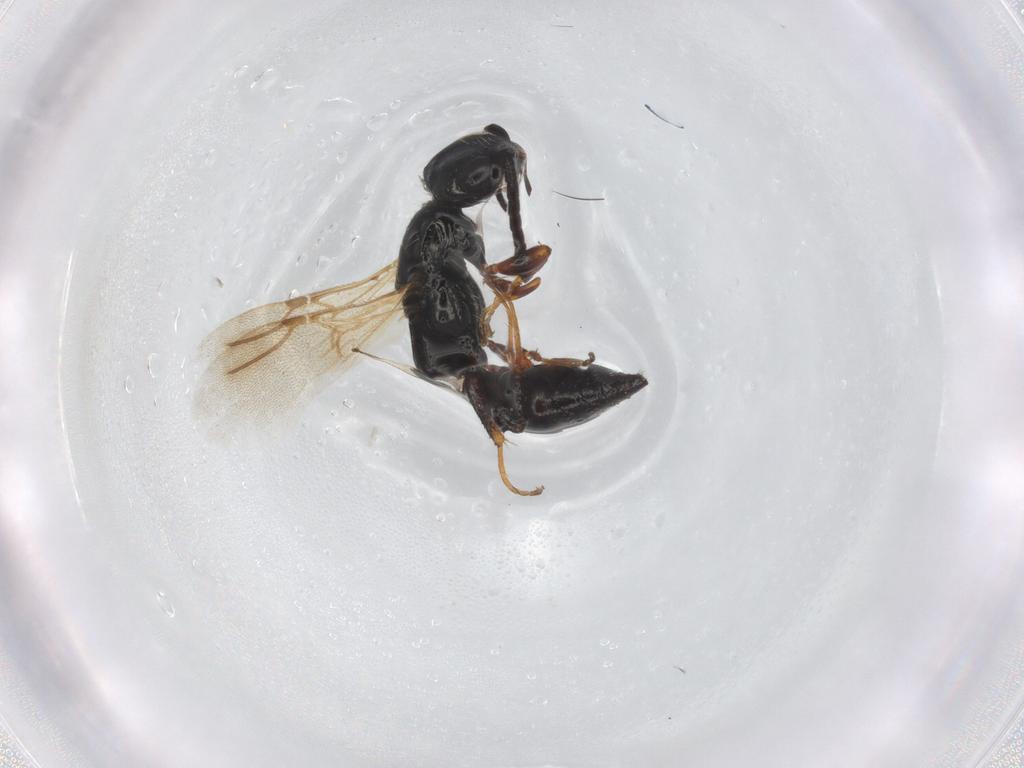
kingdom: Animalia
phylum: Arthropoda
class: Insecta
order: Hymenoptera
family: Bethylidae
